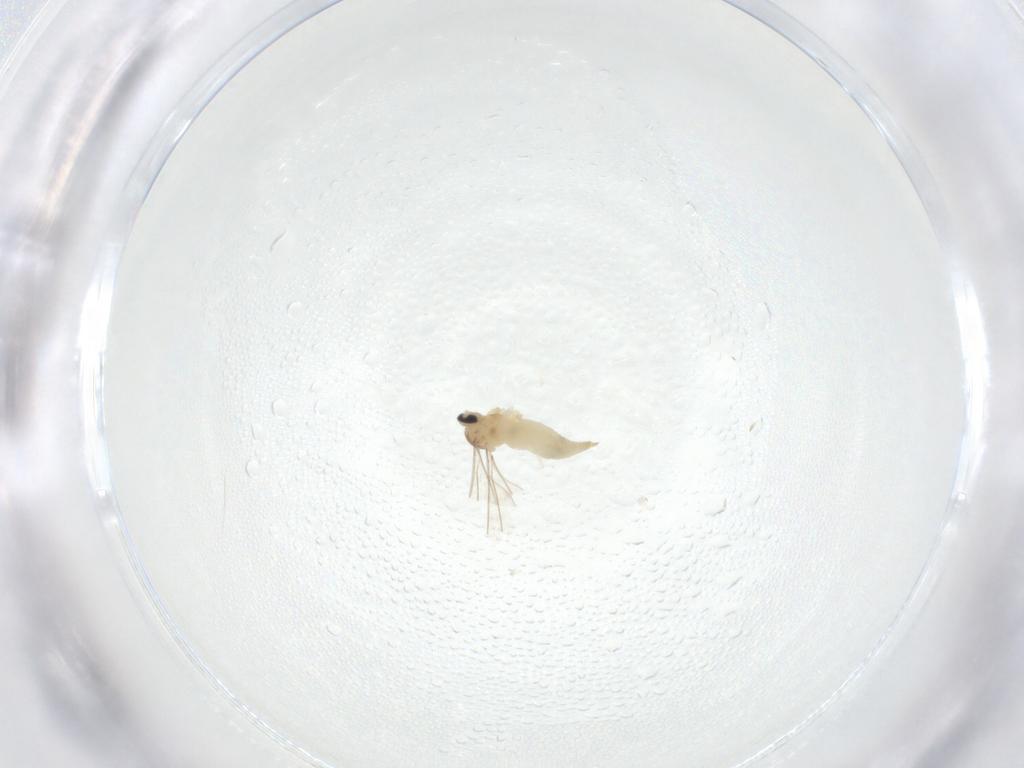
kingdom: Animalia
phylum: Arthropoda
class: Insecta
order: Diptera
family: Cecidomyiidae
